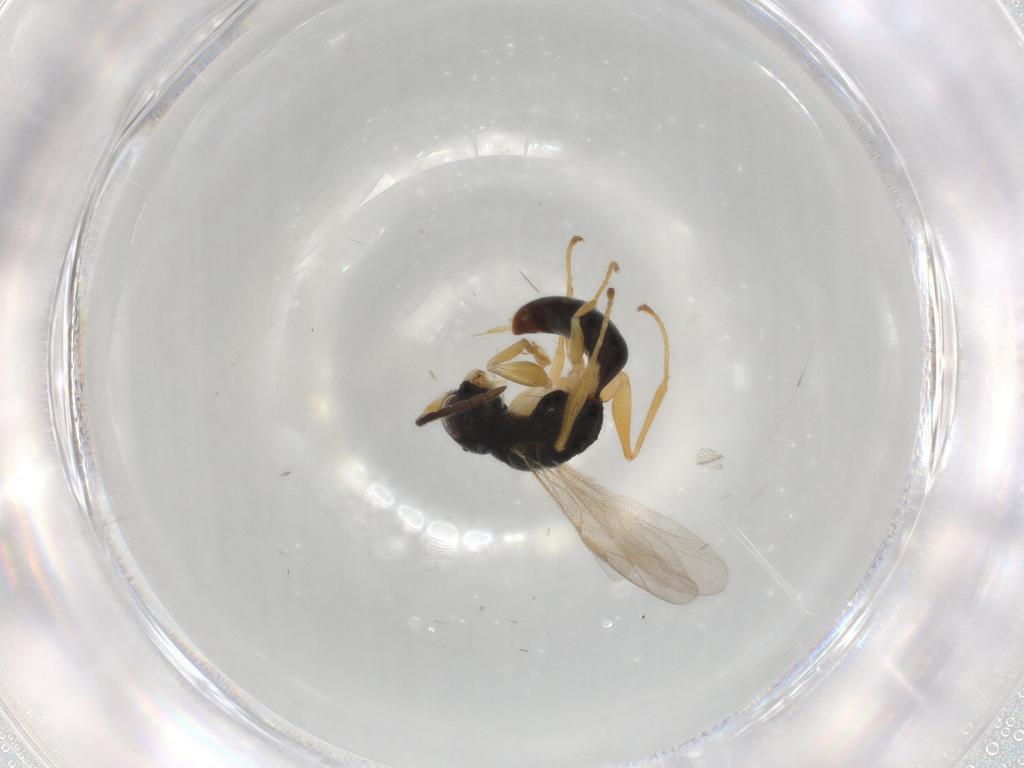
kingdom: Animalia
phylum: Arthropoda
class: Insecta
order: Hymenoptera
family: Dryinidae
